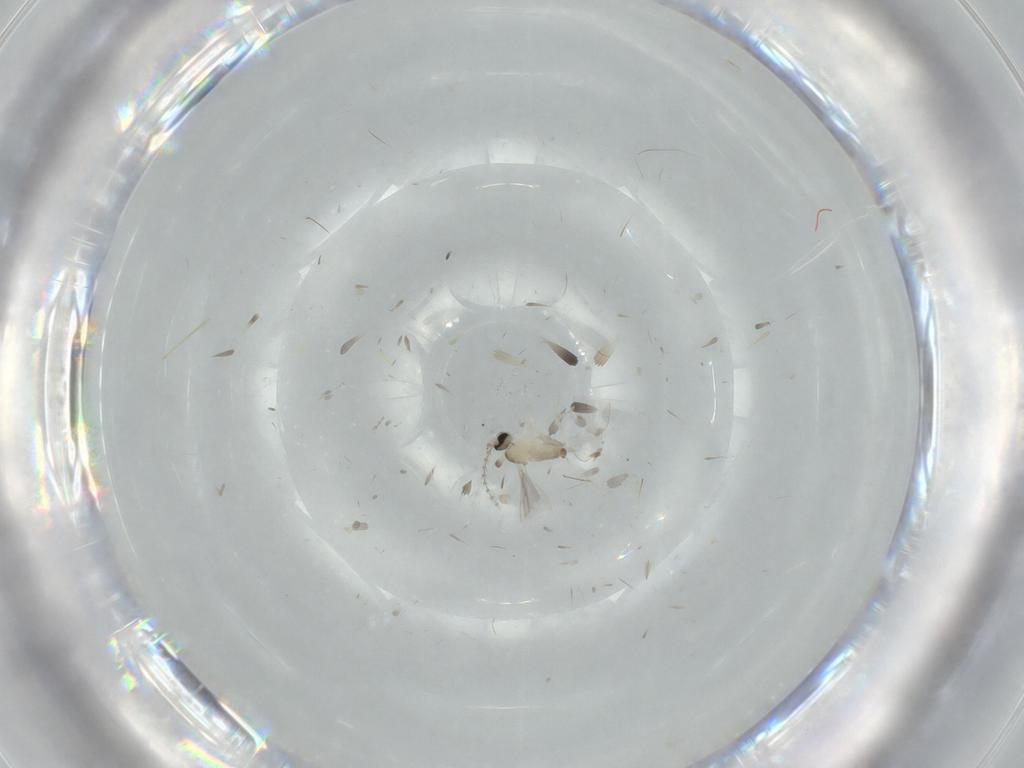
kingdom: Animalia
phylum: Arthropoda
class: Insecta
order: Diptera
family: Cecidomyiidae
